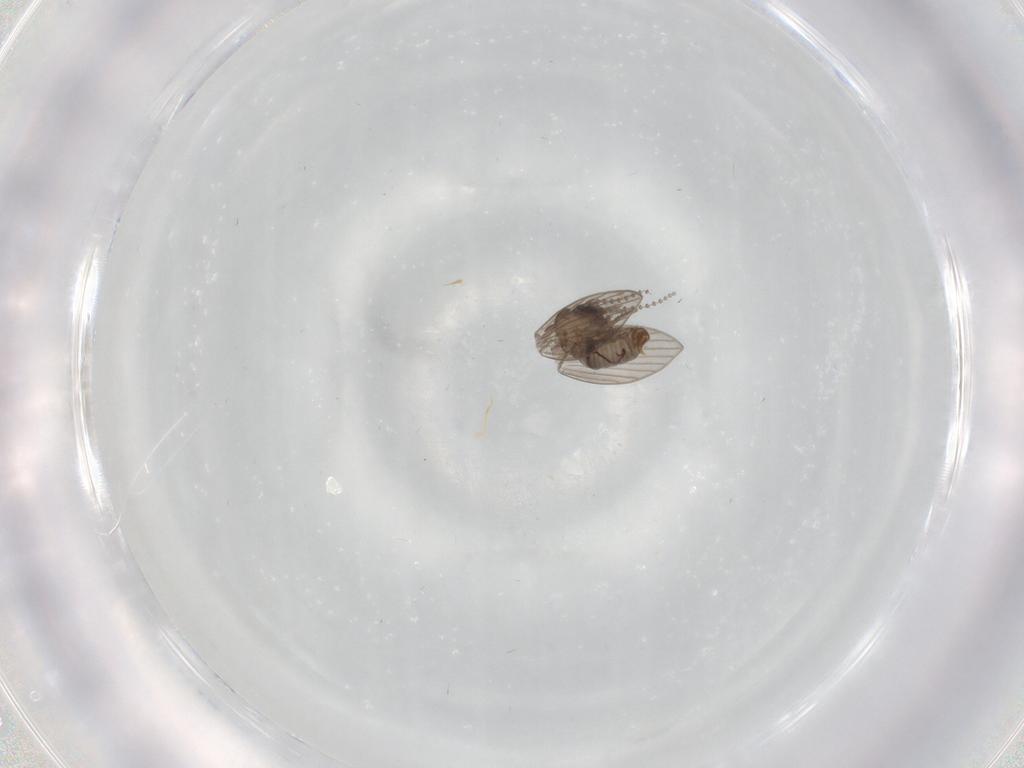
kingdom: Animalia
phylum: Arthropoda
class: Insecta
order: Diptera
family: Psychodidae
